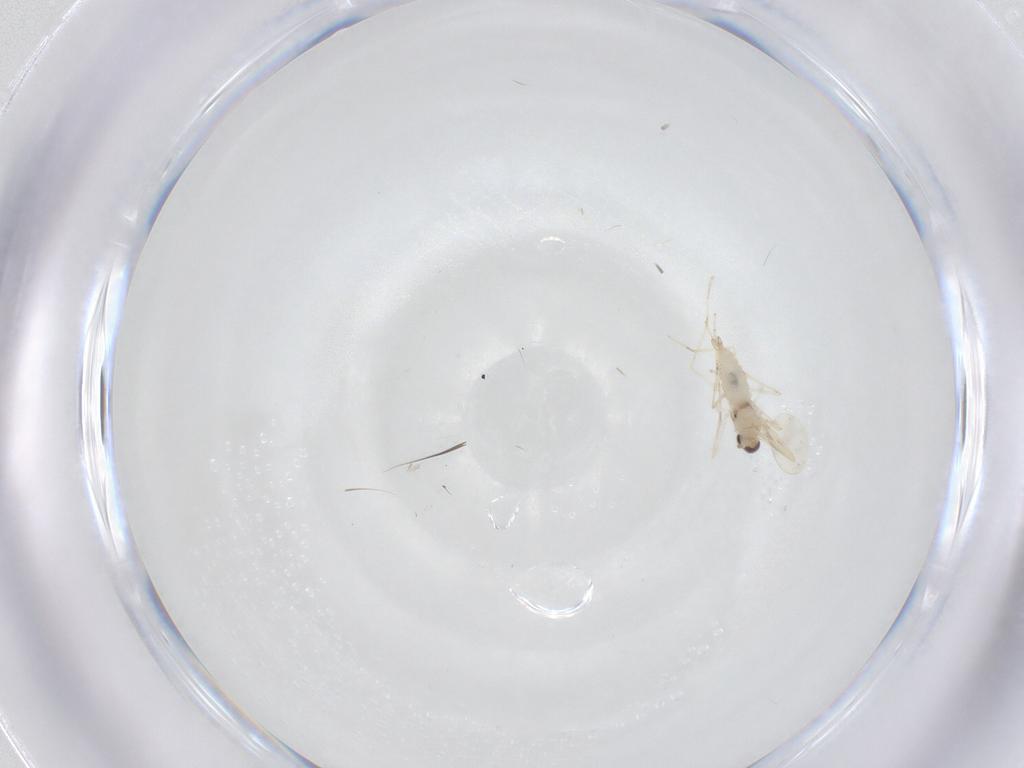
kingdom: Animalia
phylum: Arthropoda
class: Insecta
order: Diptera
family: Cecidomyiidae
